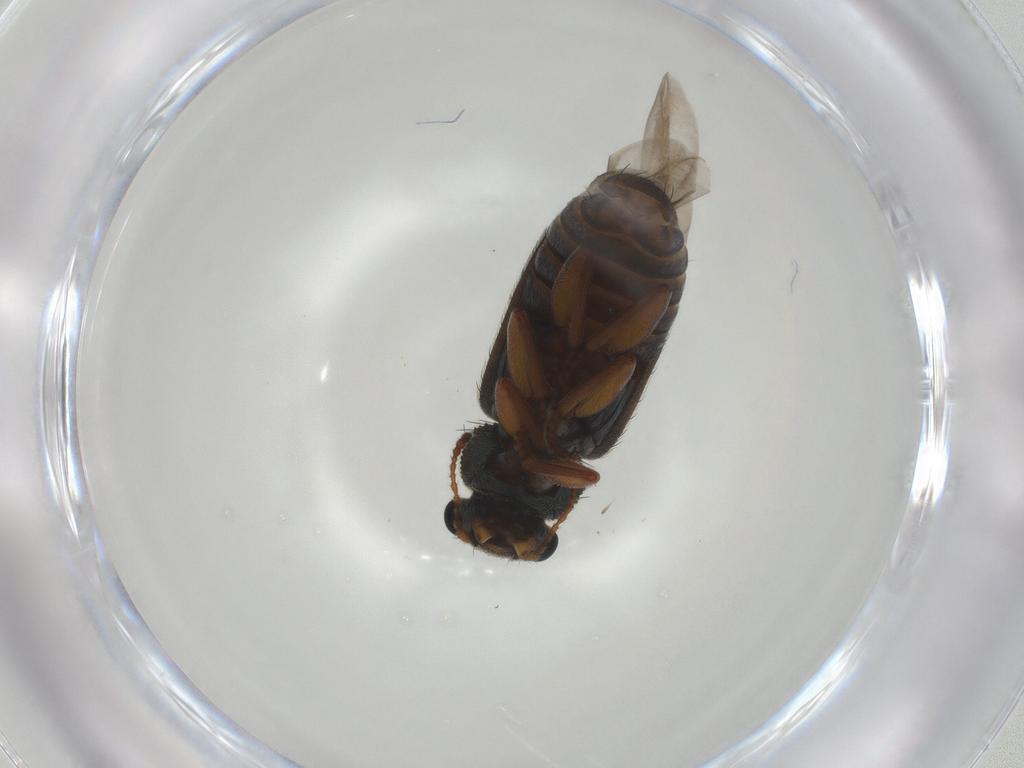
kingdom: Animalia
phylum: Arthropoda
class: Insecta
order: Coleoptera
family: Melyridae
